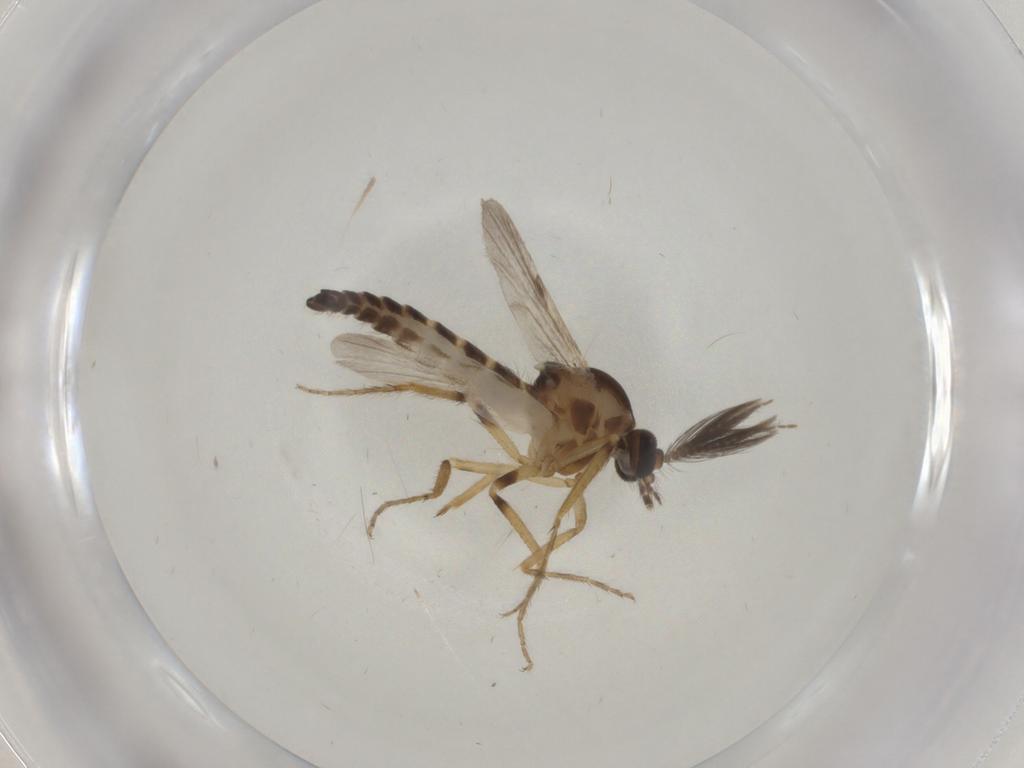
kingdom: Animalia
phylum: Arthropoda
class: Insecta
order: Diptera
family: Ceratopogonidae
